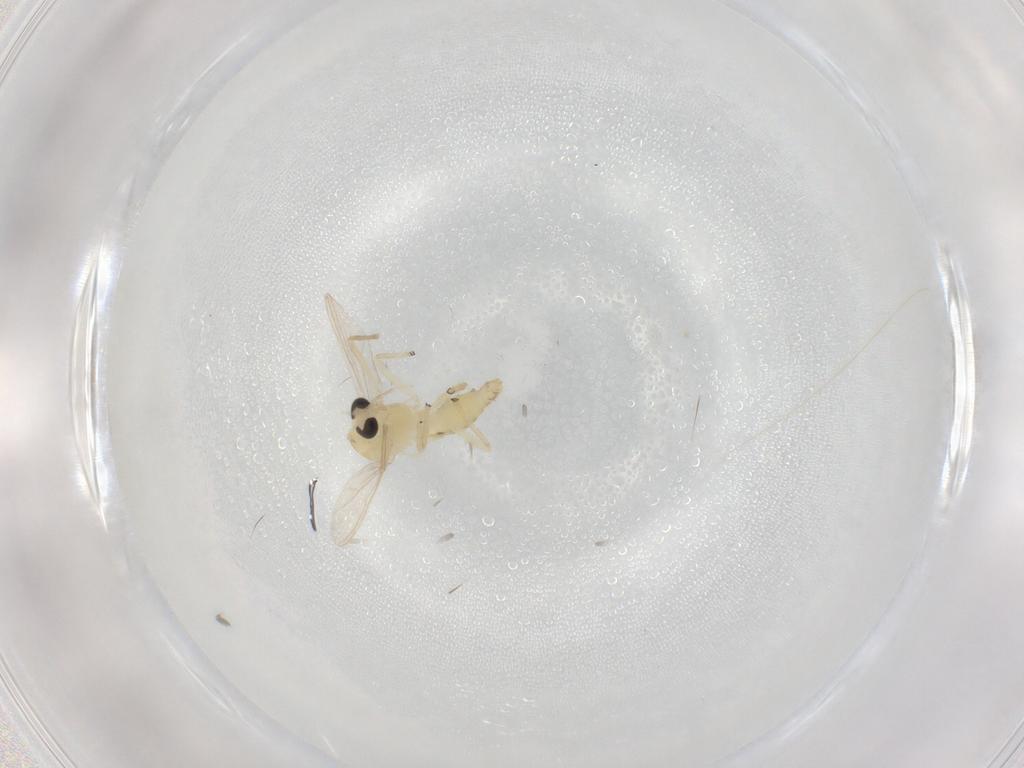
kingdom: Animalia
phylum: Arthropoda
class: Insecta
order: Diptera
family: Chironomidae
